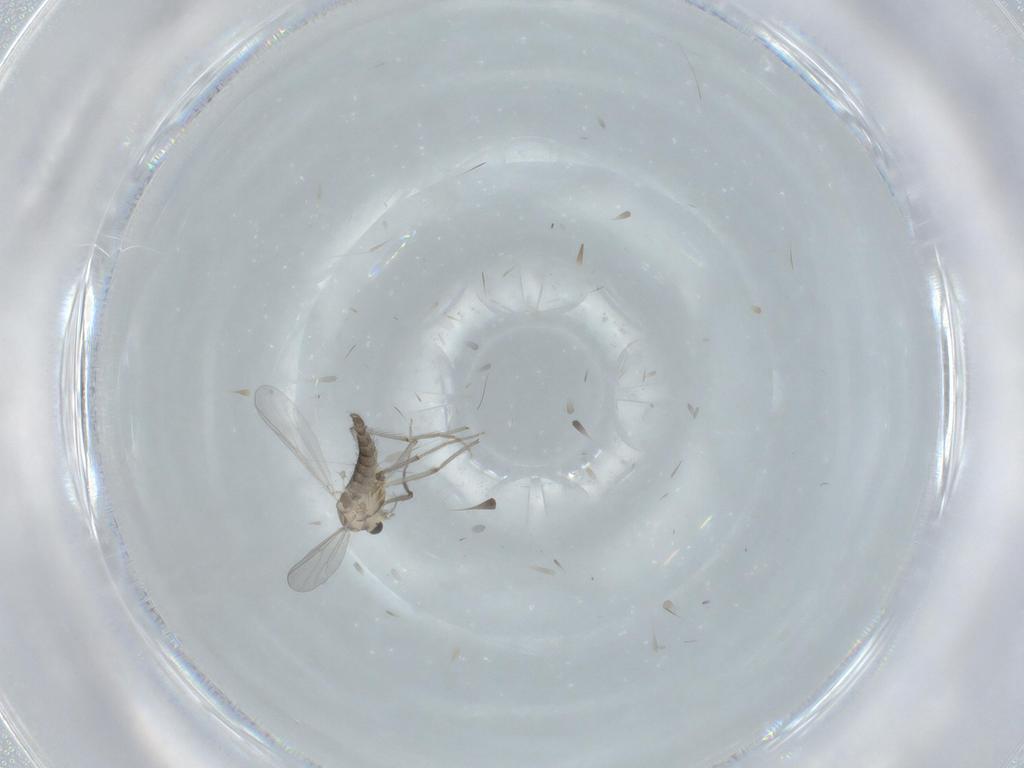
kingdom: Animalia
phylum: Arthropoda
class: Insecta
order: Diptera
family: Chironomidae
